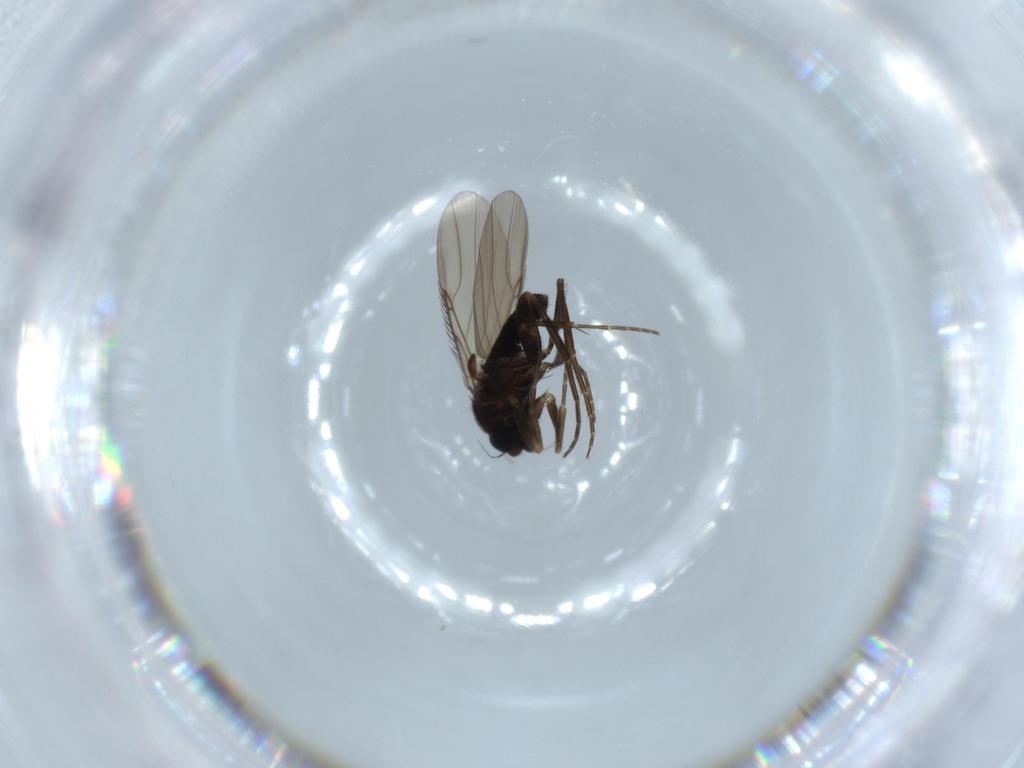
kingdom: Animalia
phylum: Arthropoda
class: Insecta
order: Diptera
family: Phoridae
